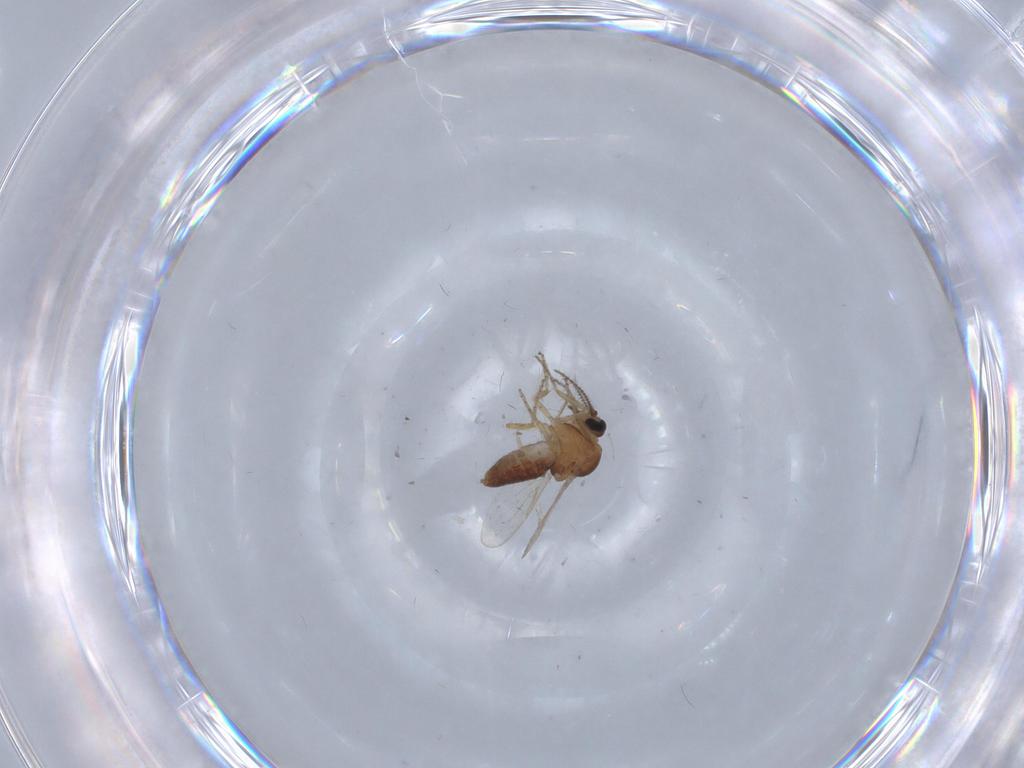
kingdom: Animalia
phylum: Arthropoda
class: Insecta
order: Diptera
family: Ceratopogonidae
